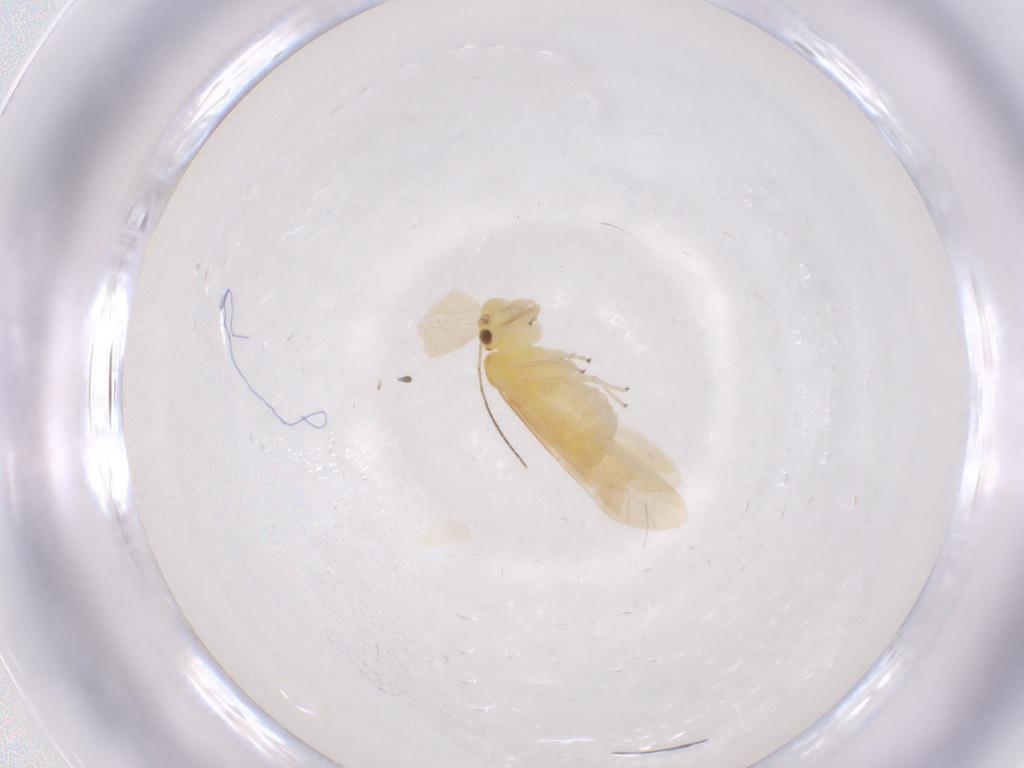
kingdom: Animalia
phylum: Arthropoda
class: Insecta
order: Psocodea
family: Caeciliusidae
